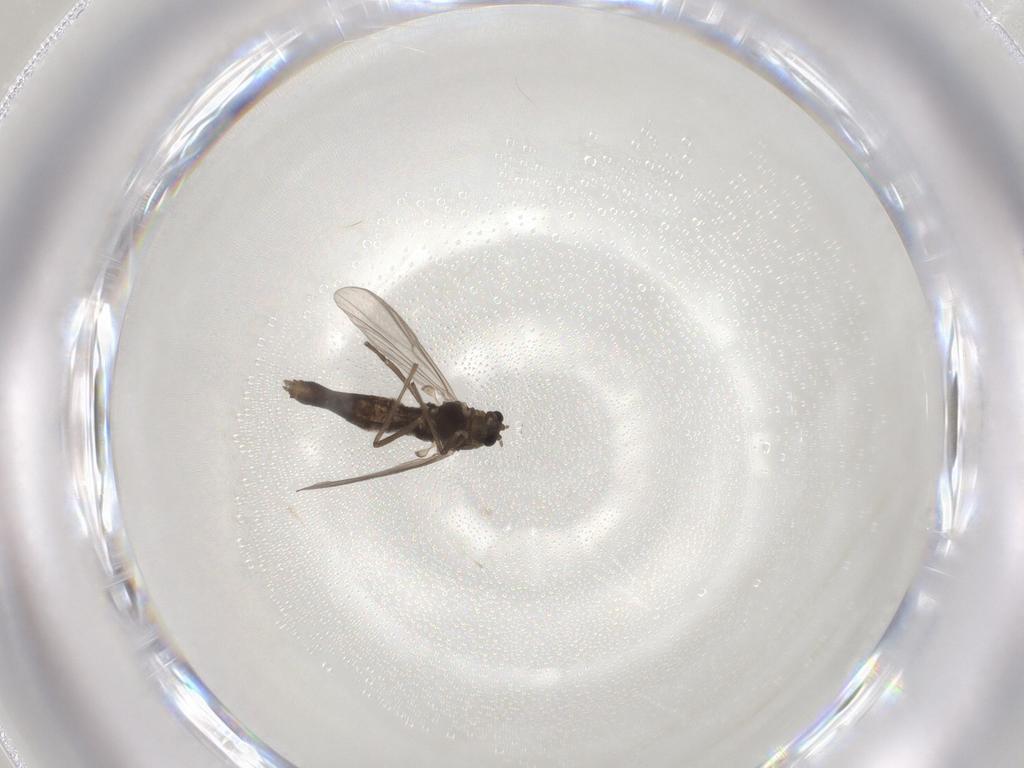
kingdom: Animalia
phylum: Arthropoda
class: Insecta
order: Diptera
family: Chironomidae
